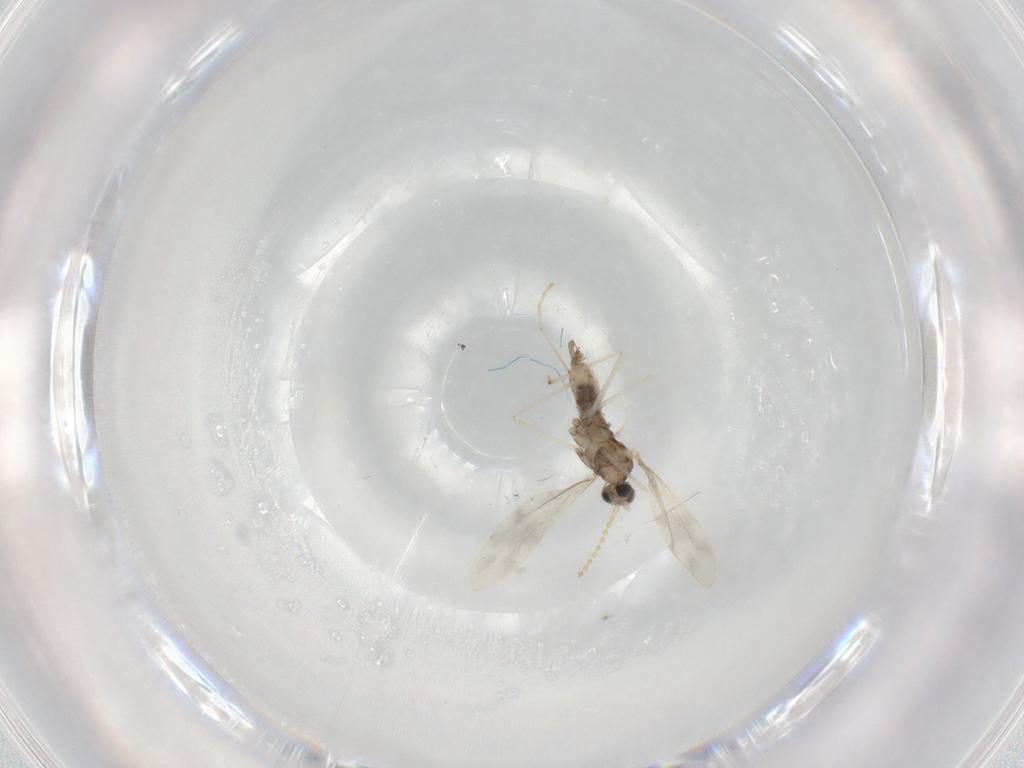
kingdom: Animalia
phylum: Arthropoda
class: Insecta
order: Diptera
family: Cecidomyiidae
